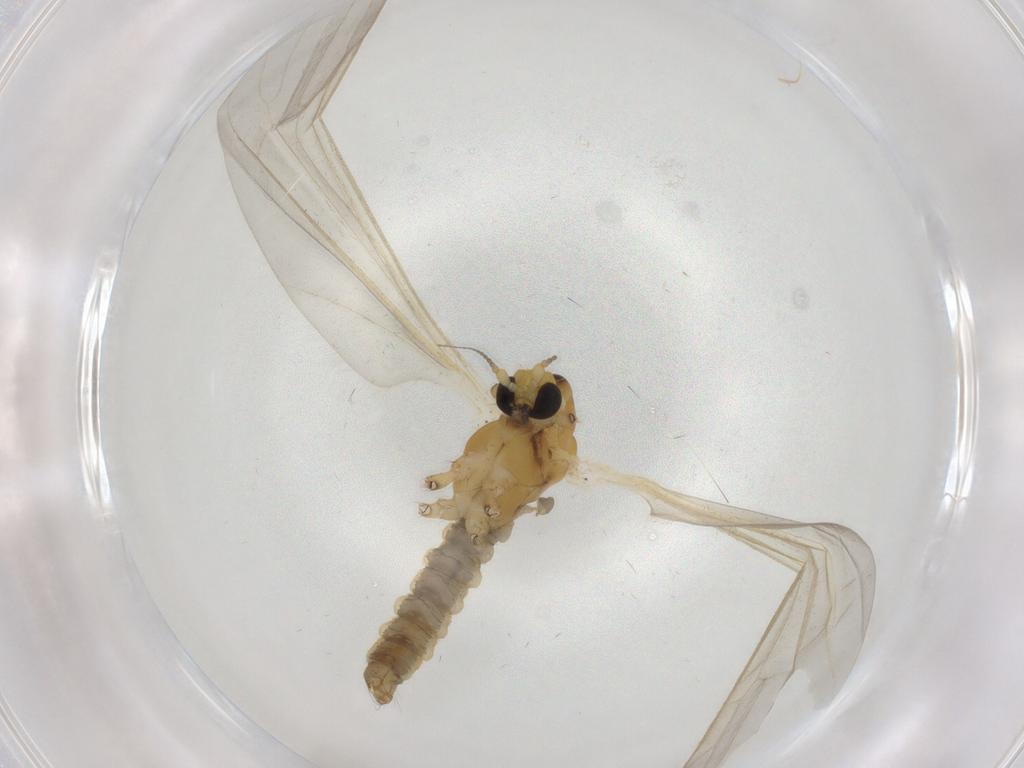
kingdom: Animalia
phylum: Arthropoda
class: Insecta
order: Diptera
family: Limoniidae
